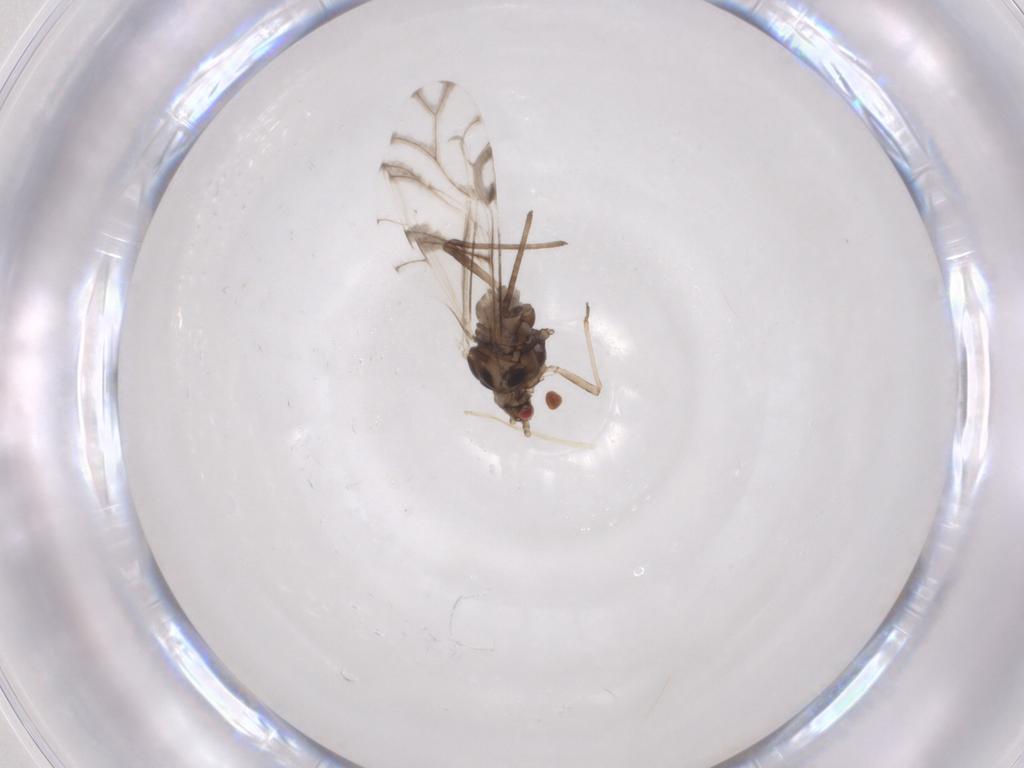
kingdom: Animalia
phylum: Arthropoda
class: Insecta
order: Hemiptera
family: Aphididae
